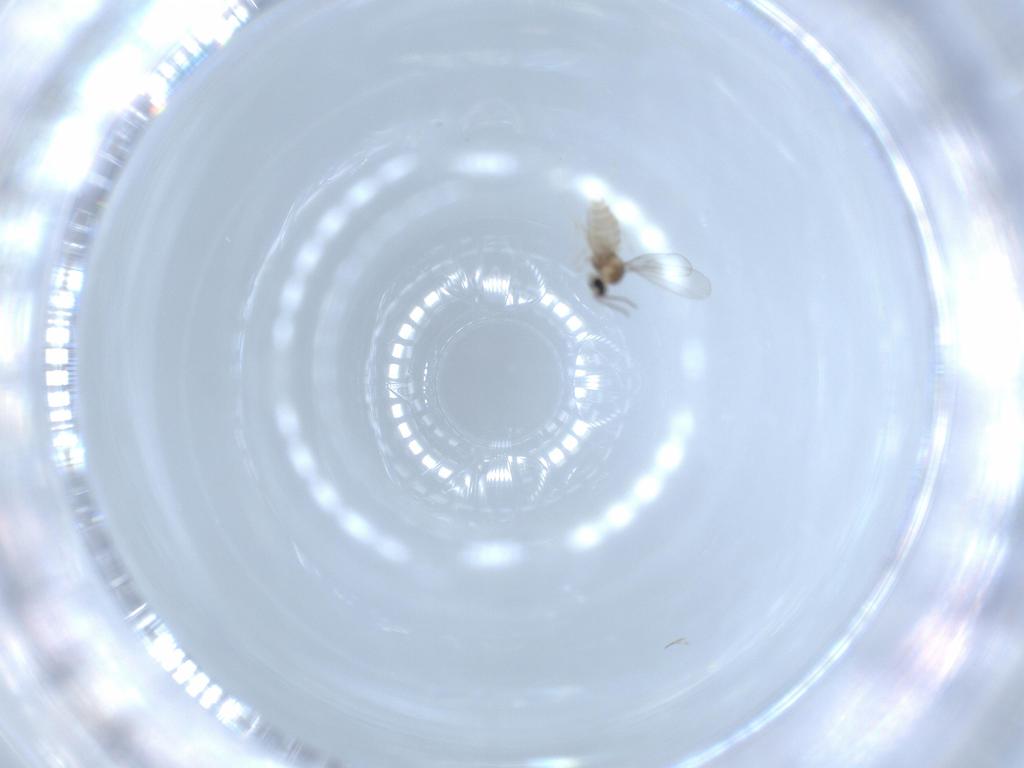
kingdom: Animalia
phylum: Arthropoda
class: Insecta
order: Diptera
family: Cecidomyiidae
